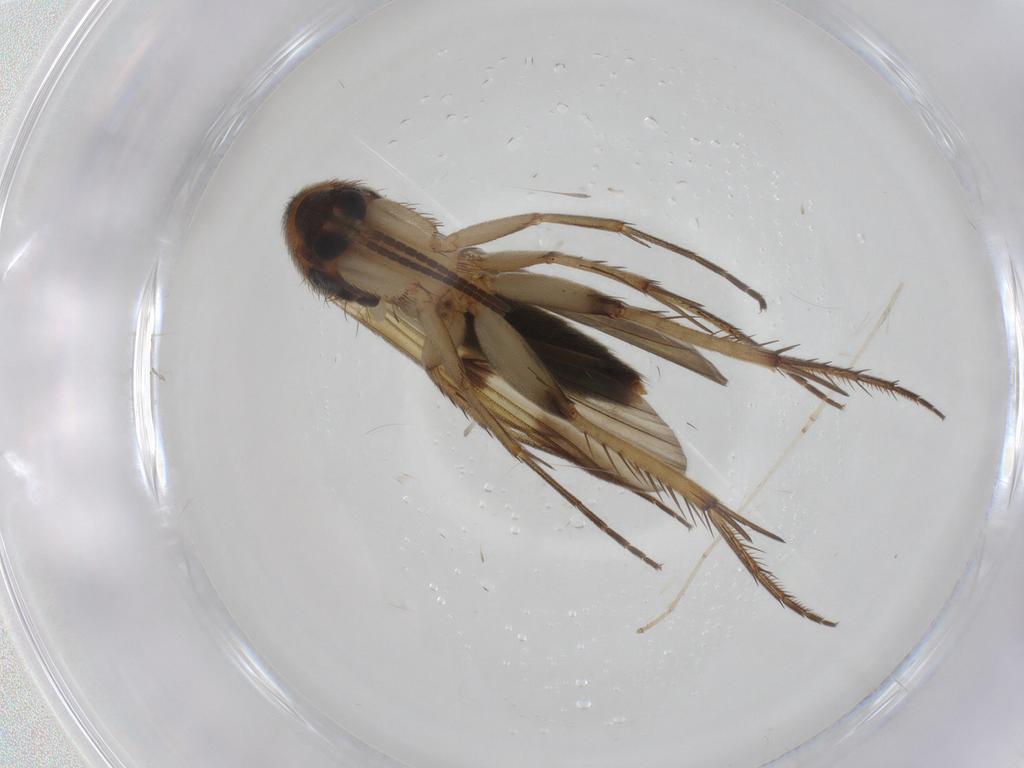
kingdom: Animalia
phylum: Arthropoda
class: Insecta
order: Diptera
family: Mycetophilidae
